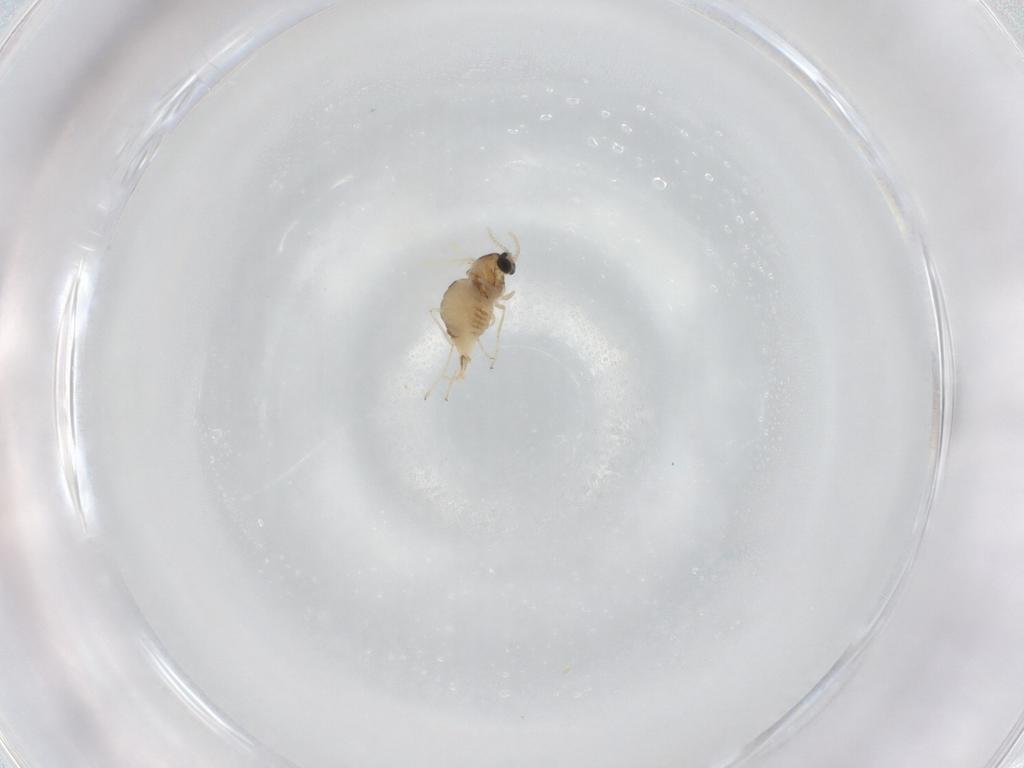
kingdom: Animalia
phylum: Arthropoda
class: Insecta
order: Diptera
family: Cecidomyiidae
